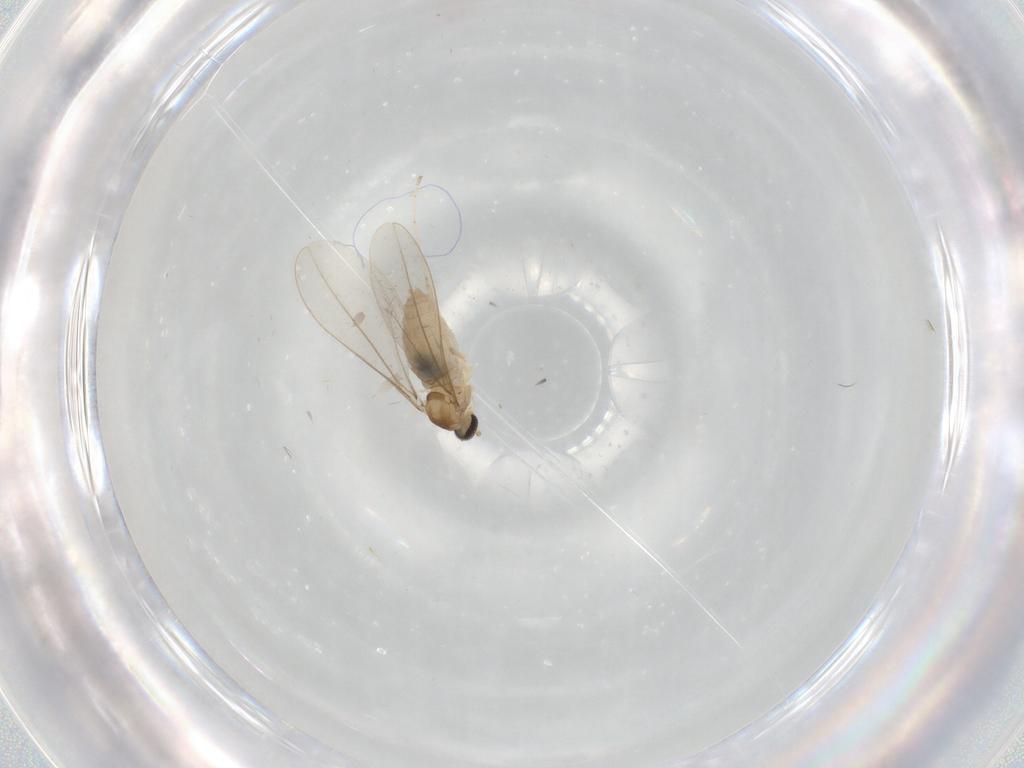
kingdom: Animalia
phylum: Arthropoda
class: Insecta
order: Diptera
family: Cecidomyiidae
